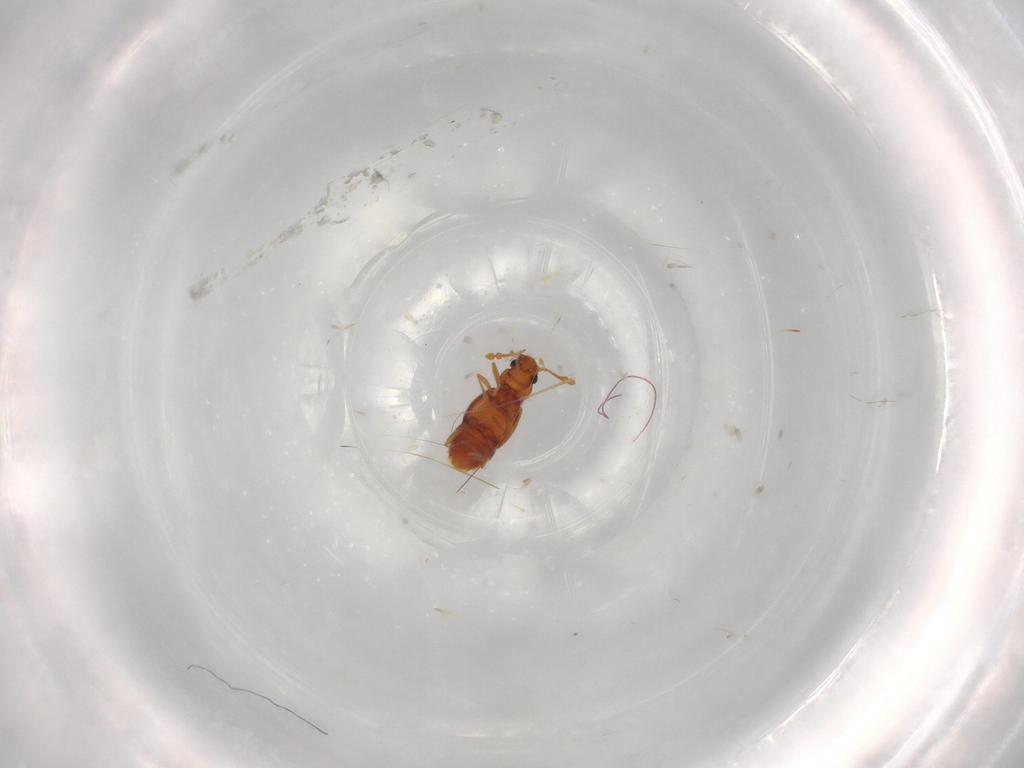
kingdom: Animalia
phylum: Arthropoda
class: Insecta
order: Coleoptera
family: Staphylinidae
